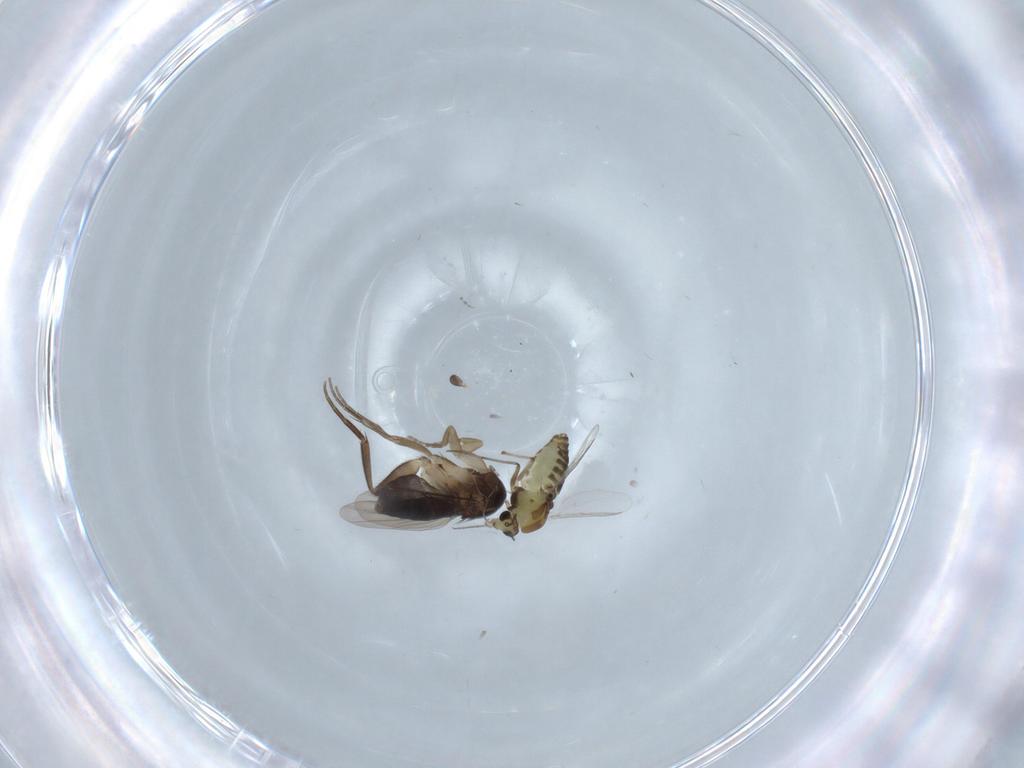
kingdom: Animalia
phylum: Arthropoda
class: Insecta
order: Diptera
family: Chironomidae
